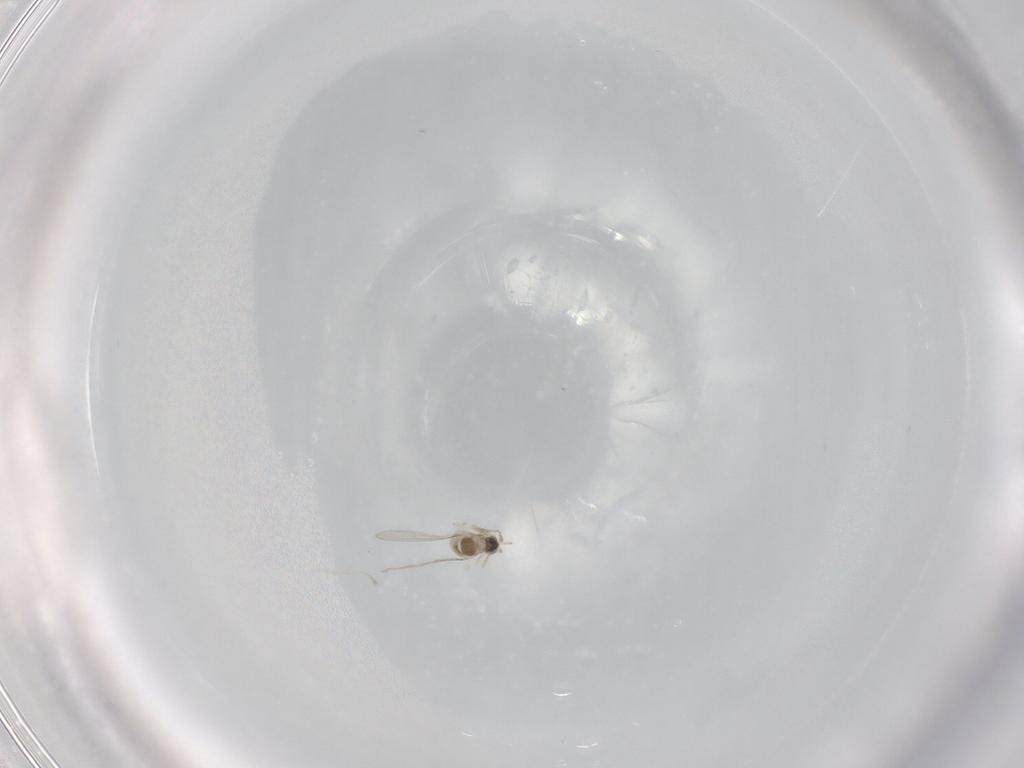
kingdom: Animalia
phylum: Arthropoda
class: Insecta
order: Diptera
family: Cecidomyiidae
